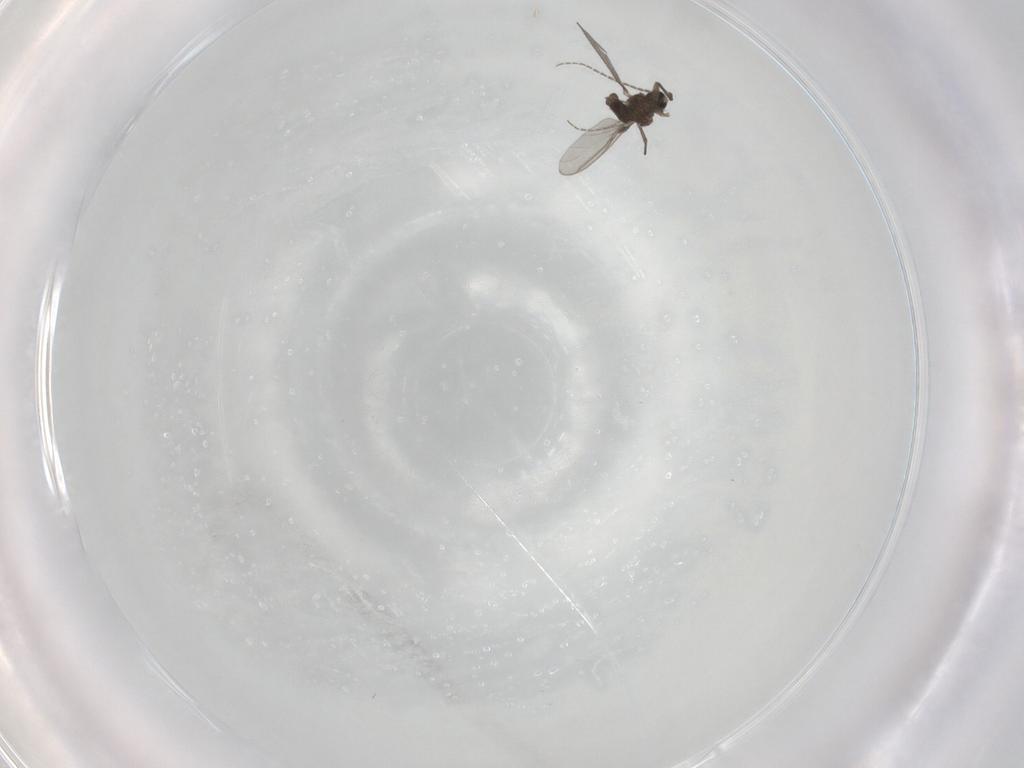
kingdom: Animalia
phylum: Arthropoda
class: Insecta
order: Diptera
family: Sciaridae
